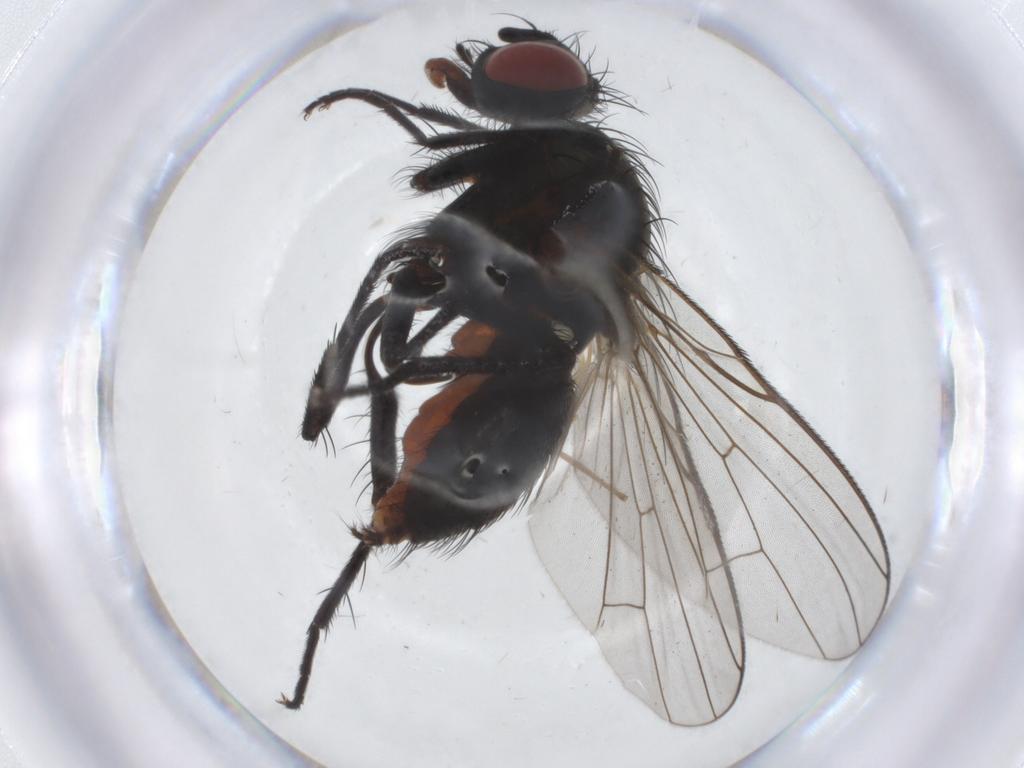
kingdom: Animalia
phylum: Arthropoda
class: Insecta
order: Diptera
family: Anthomyiidae
